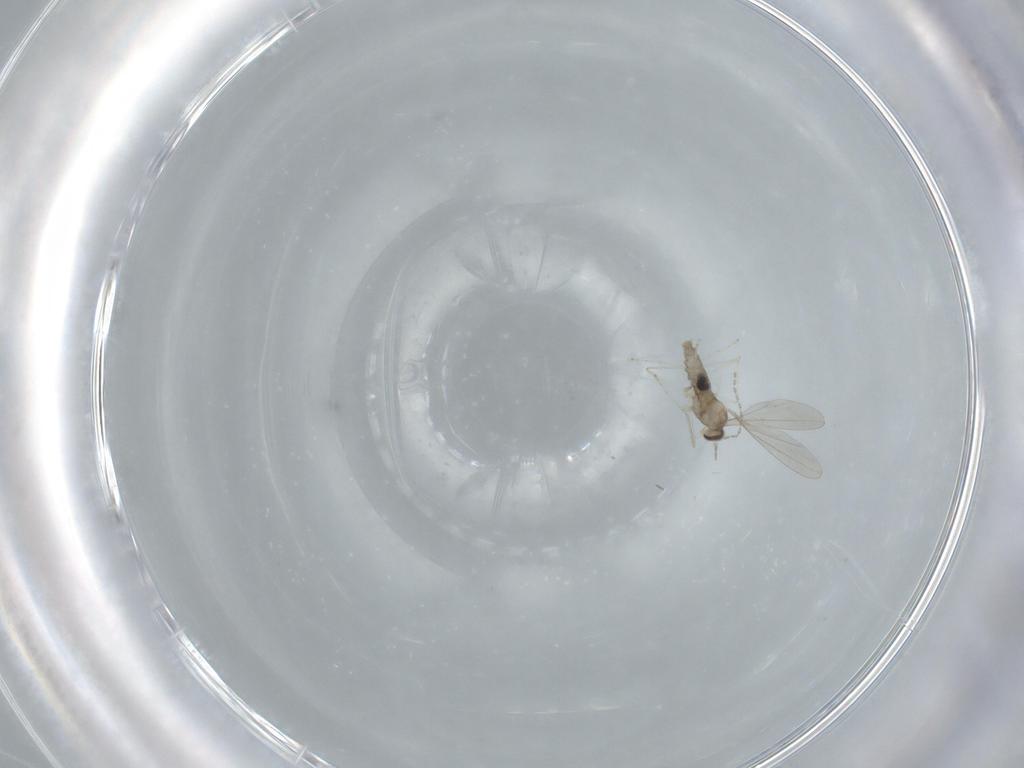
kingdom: Animalia
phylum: Arthropoda
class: Insecta
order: Diptera
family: Cecidomyiidae
